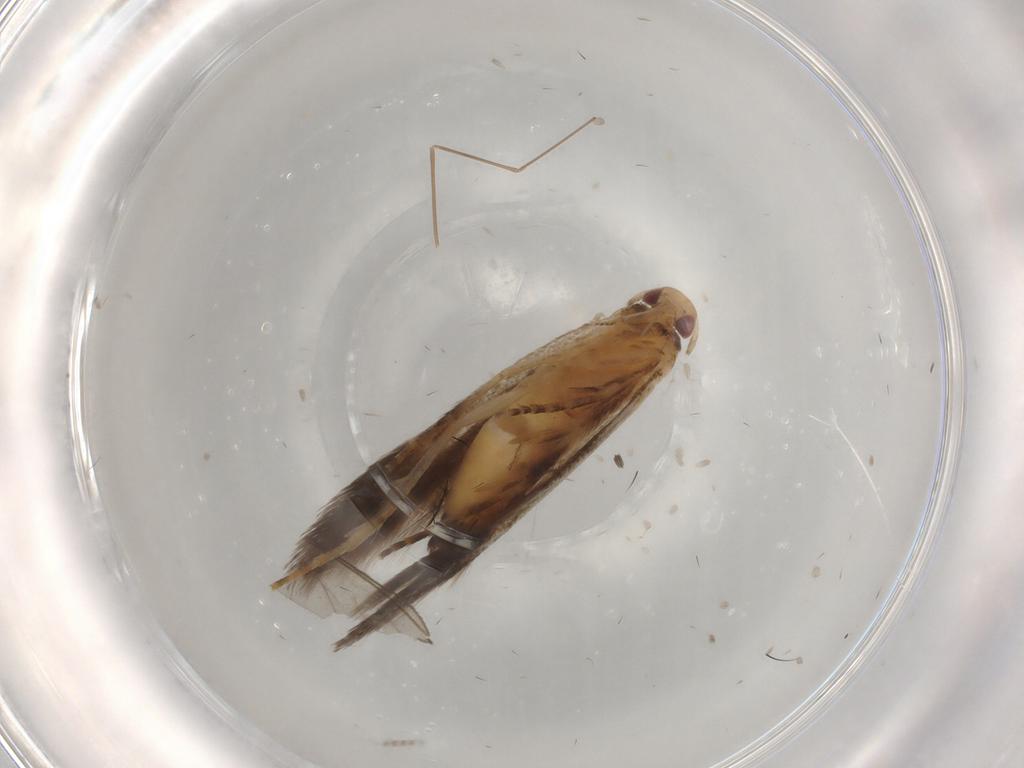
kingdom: Animalia
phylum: Arthropoda
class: Insecta
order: Lepidoptera
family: Gelechiidae
